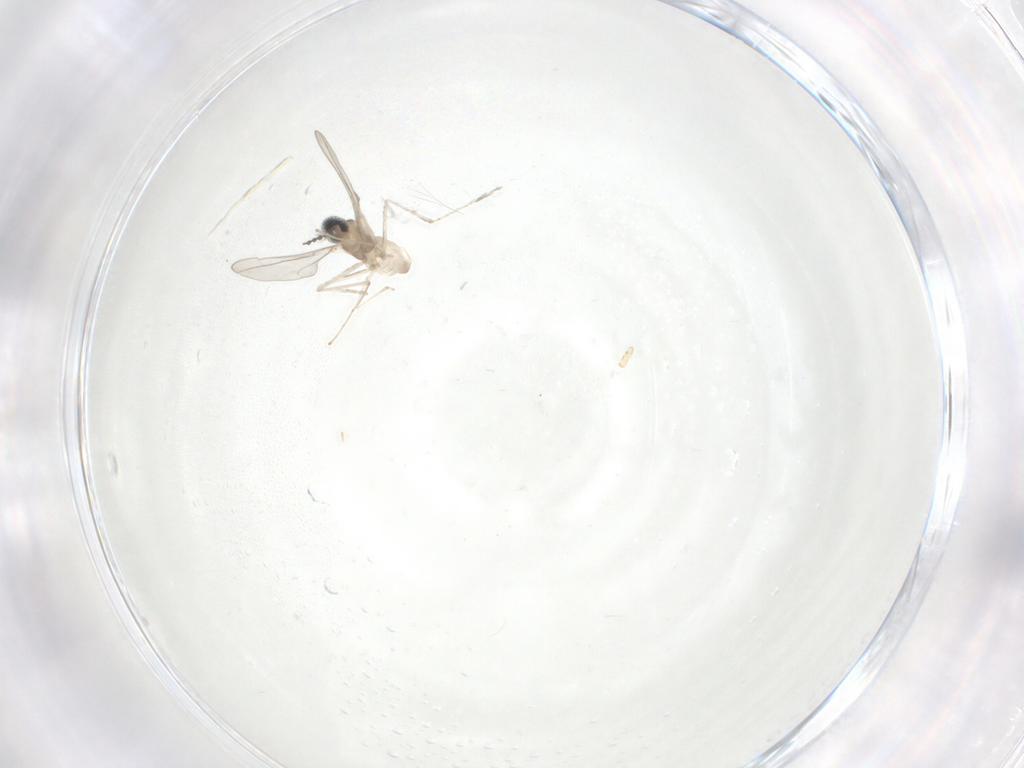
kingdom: Animalia
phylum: Arthropoda
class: Insecta
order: Diptera
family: Cecidomyiidae
